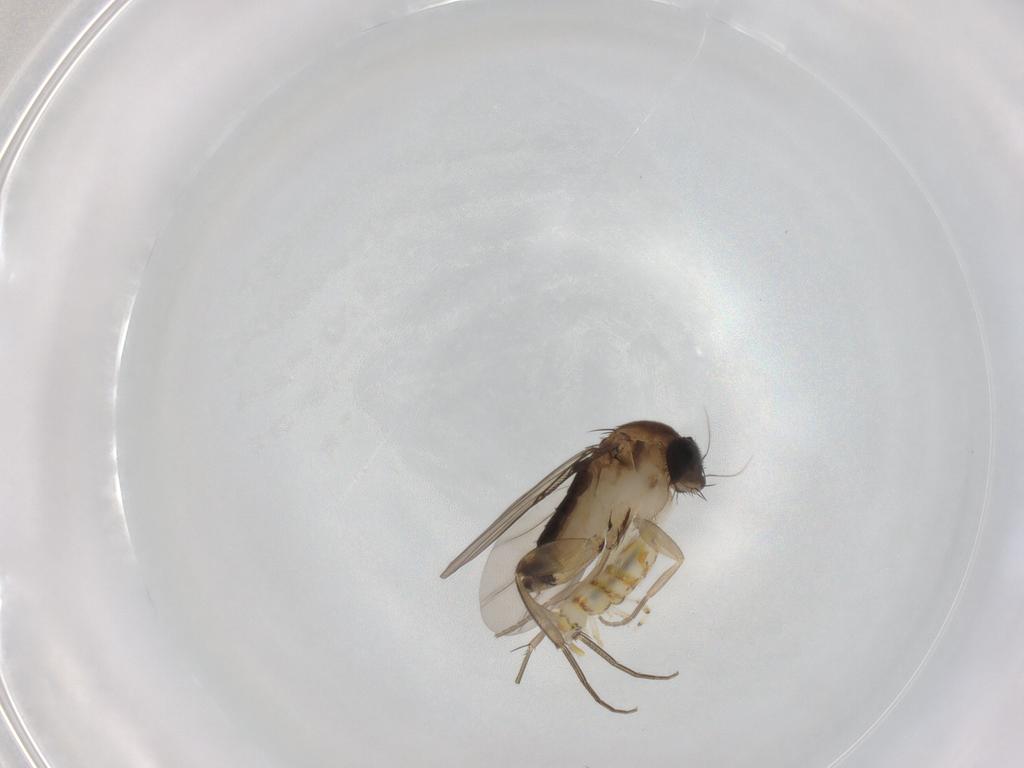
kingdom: Animalia
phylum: Arthropoda
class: Insecta
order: Diptera
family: Phoridae
